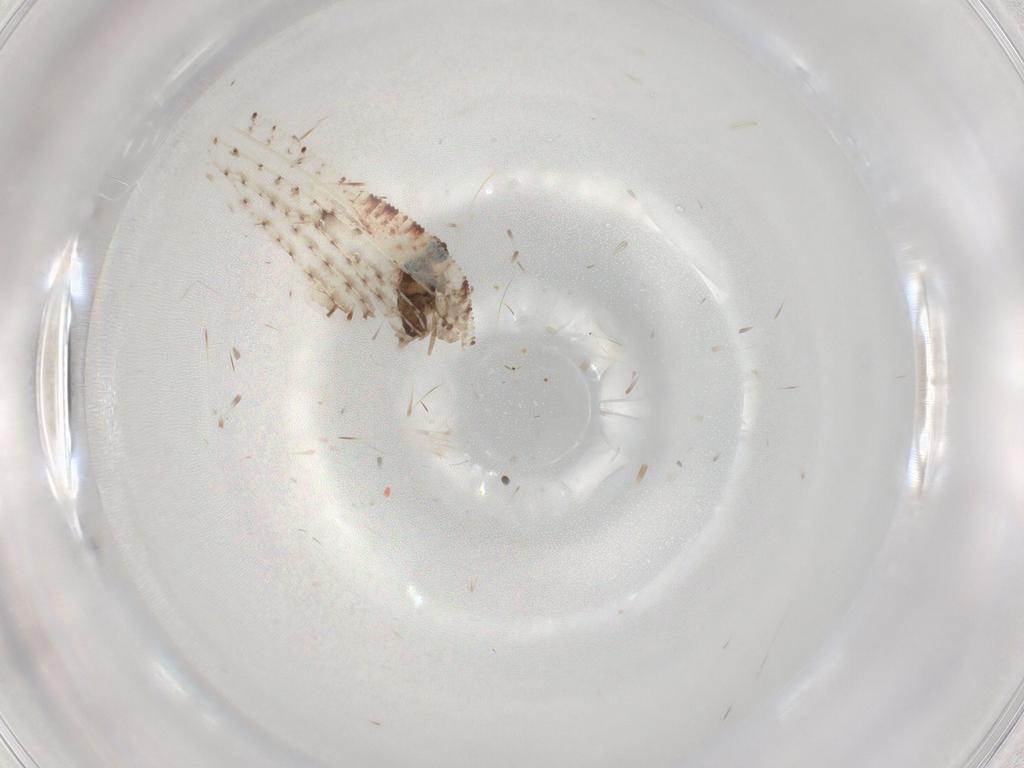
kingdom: Animalia
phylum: Arthropoda
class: Insecta
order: Diptera
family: Cecidomyiidae
